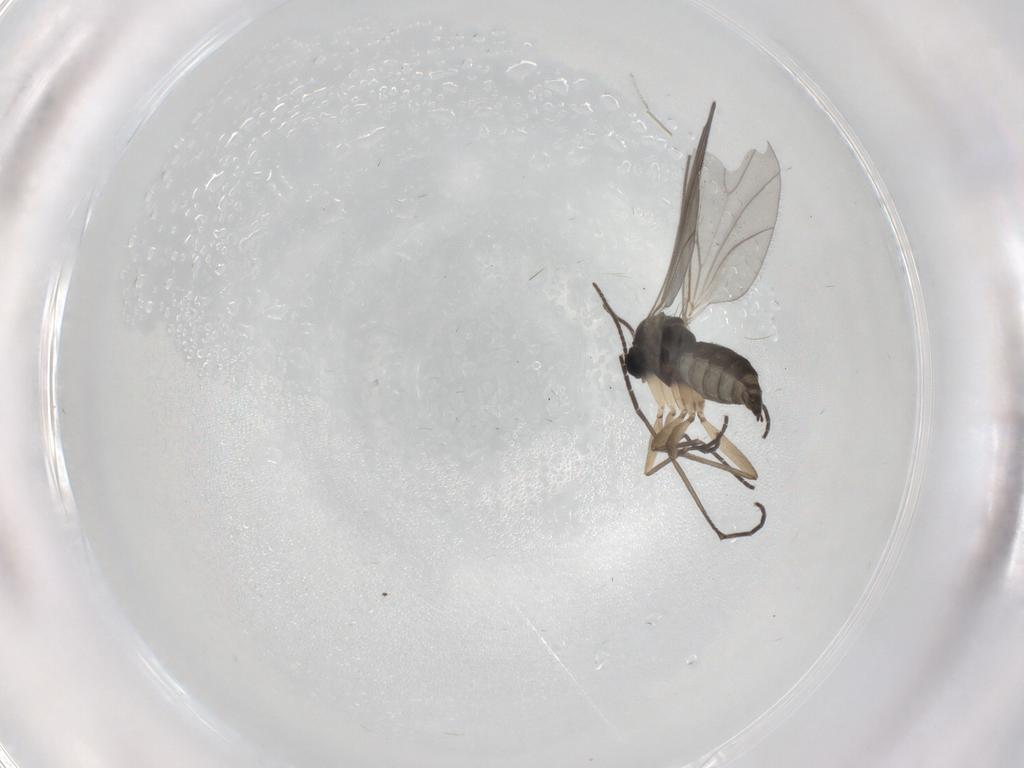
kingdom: Animalia
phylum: Arthropoda
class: Insecta
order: Diptera
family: Sciaridae
